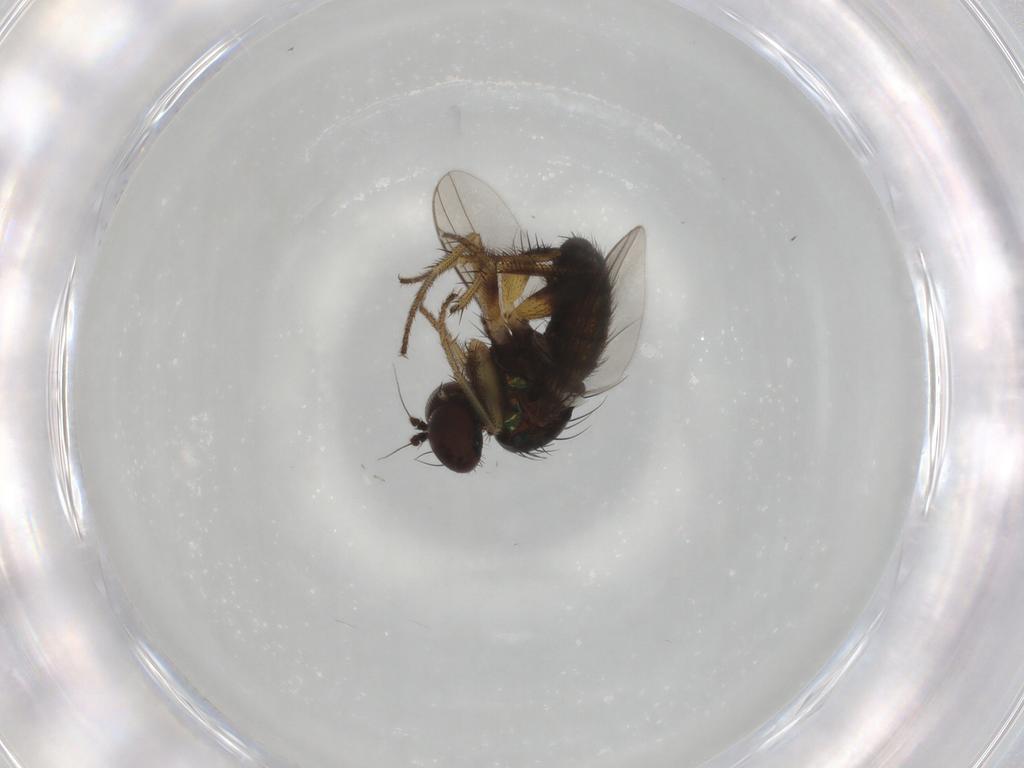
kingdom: Animalia
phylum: Arthropoda
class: Insecta
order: Diptera
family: Dolichopodidae
